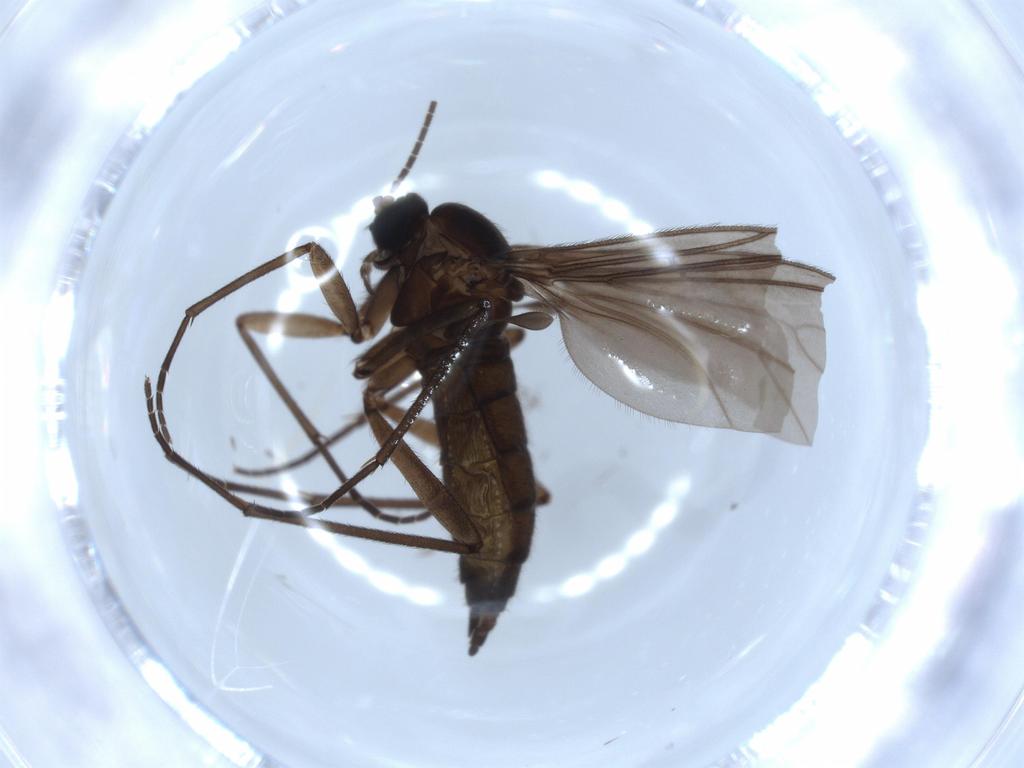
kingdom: Animalia
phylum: Arthropoda
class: Insecta
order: Diptera
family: Sciaridae
